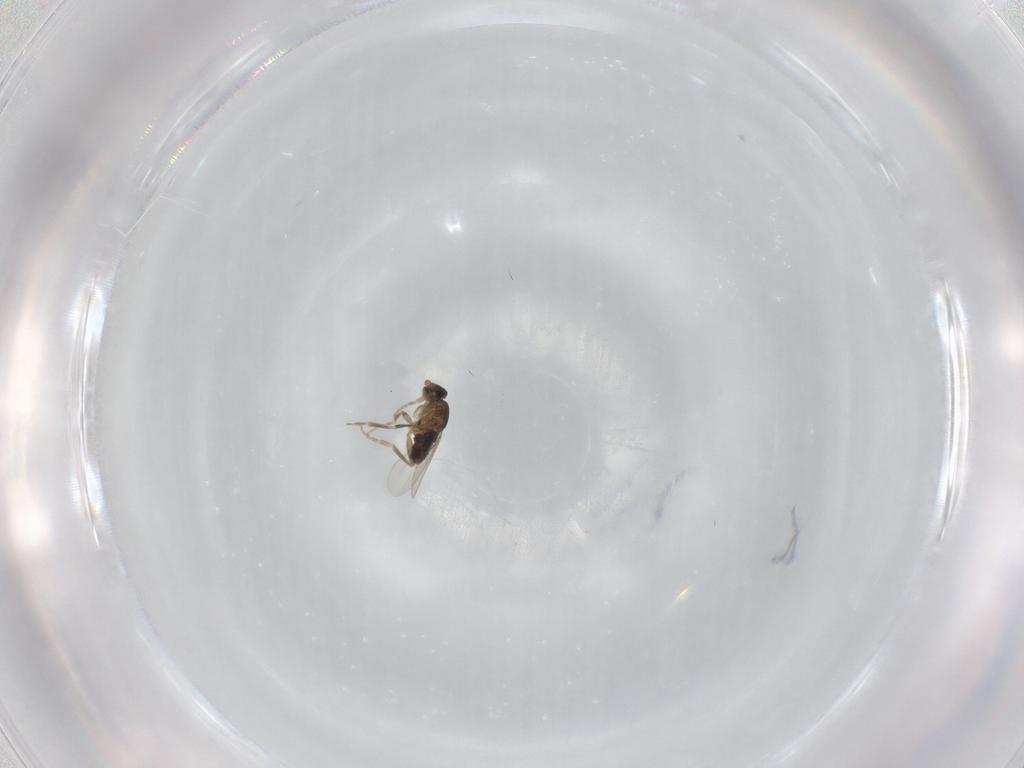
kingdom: Animalia
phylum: Arthropoda
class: Insecta
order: Diptera
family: Phoridae
